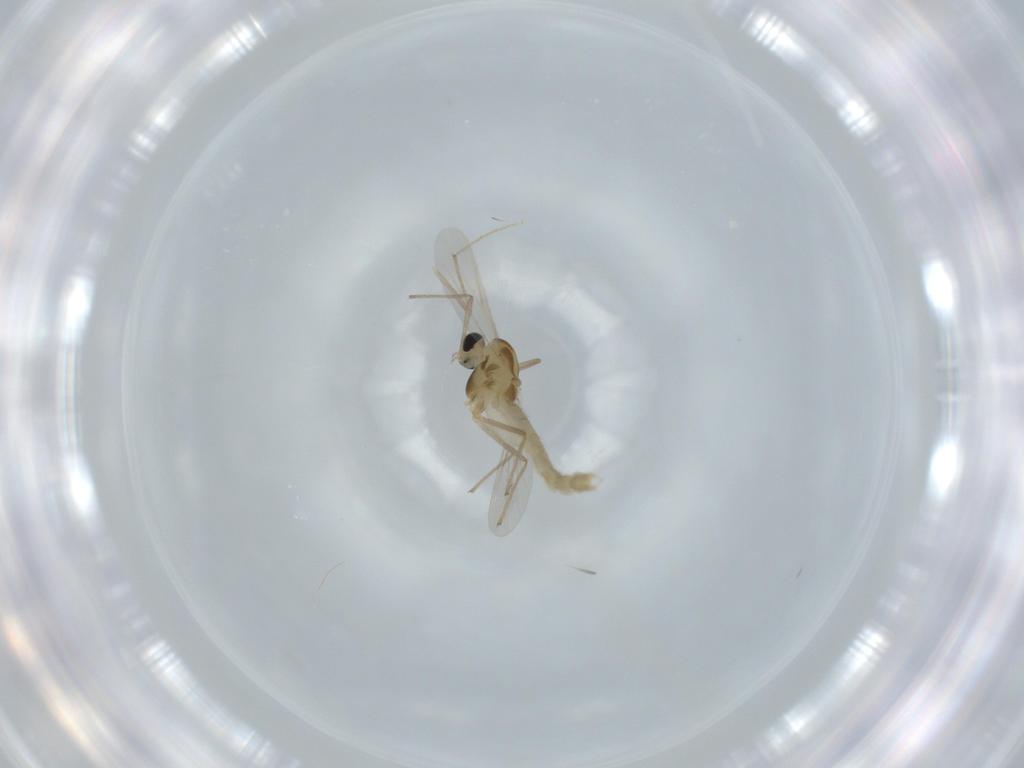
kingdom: Animalia
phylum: Arthropoda
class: Insecta
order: Diptera
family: Chironomidae
